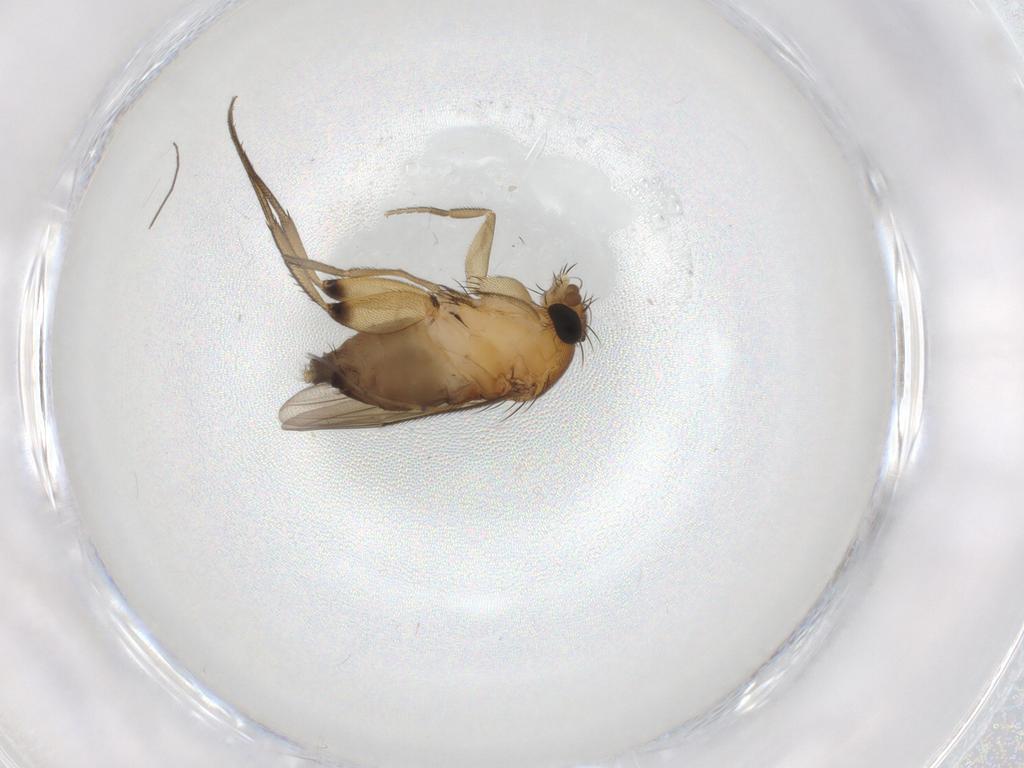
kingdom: Animalia
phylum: Arthropoda
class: Insecta
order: Diptera
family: Phoridae
